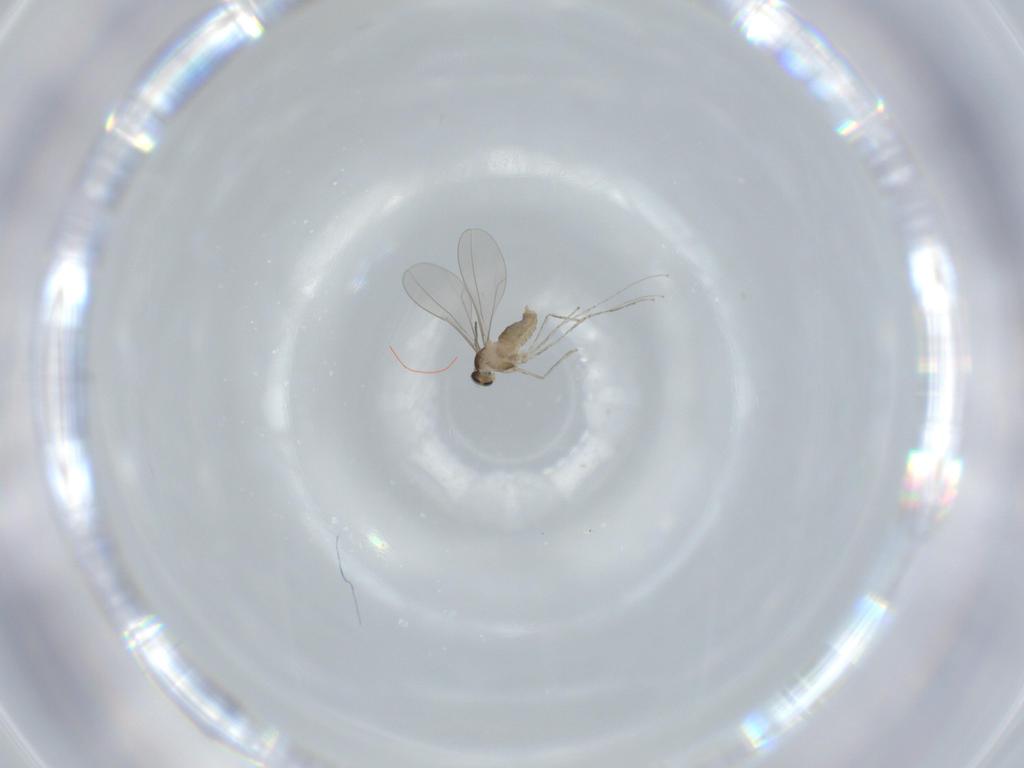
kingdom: Animalia
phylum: Arthropoda
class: Insecta
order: Diptera
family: Cecidomyiidae
